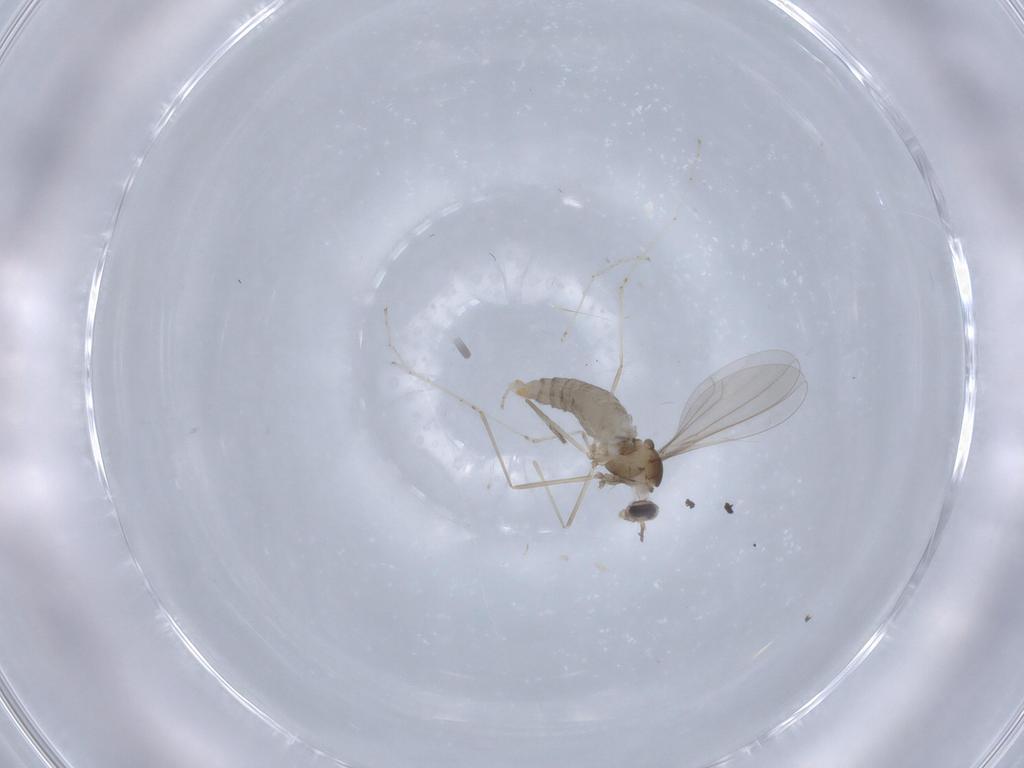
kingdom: Animalia
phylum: Arthropoda
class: Insecta
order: Diptera
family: Cecidomyiidae
